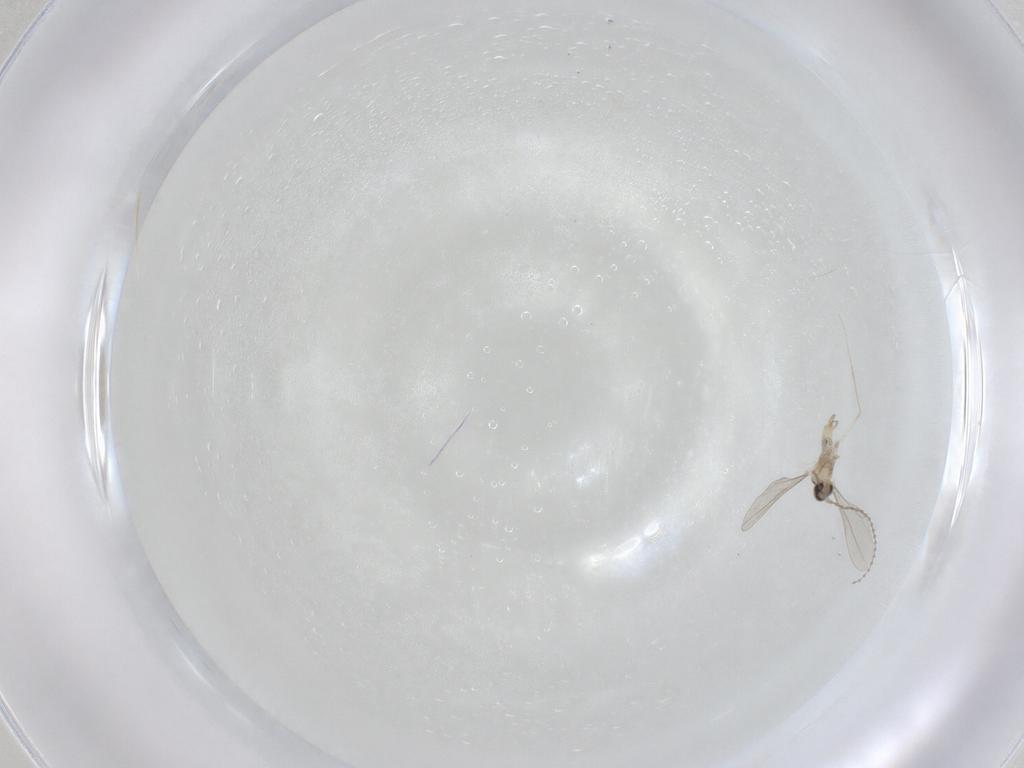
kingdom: Animalia
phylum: Arthropoda
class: Insecta
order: Diptera
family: Cecidomyiidae
